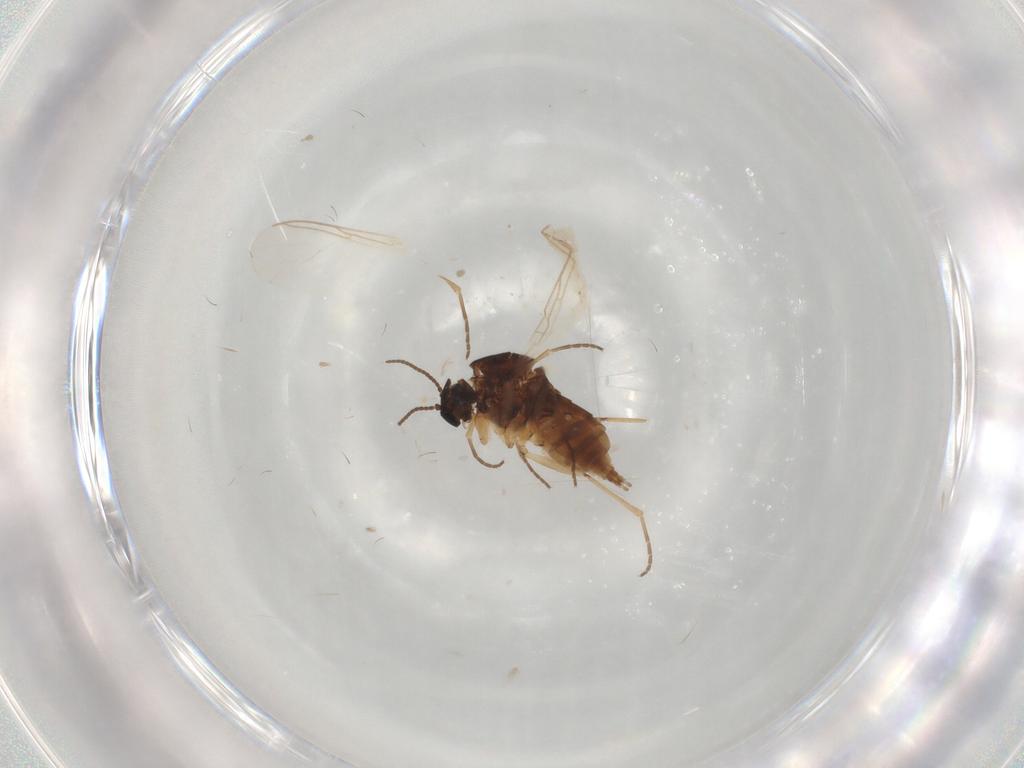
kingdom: Animalia
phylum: Arthropoda
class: Insecta
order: Diptera
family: Sciaridae
